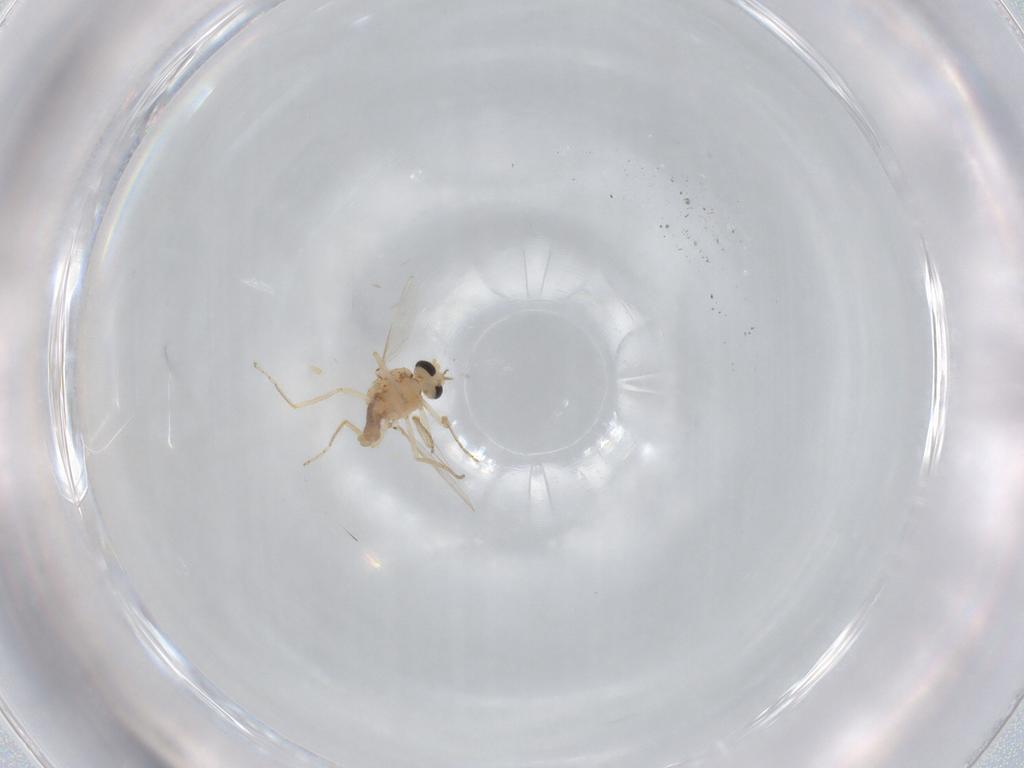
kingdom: Animalia
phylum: Arthropoda
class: Insecta
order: Diptera
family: Ceratopogonidae
